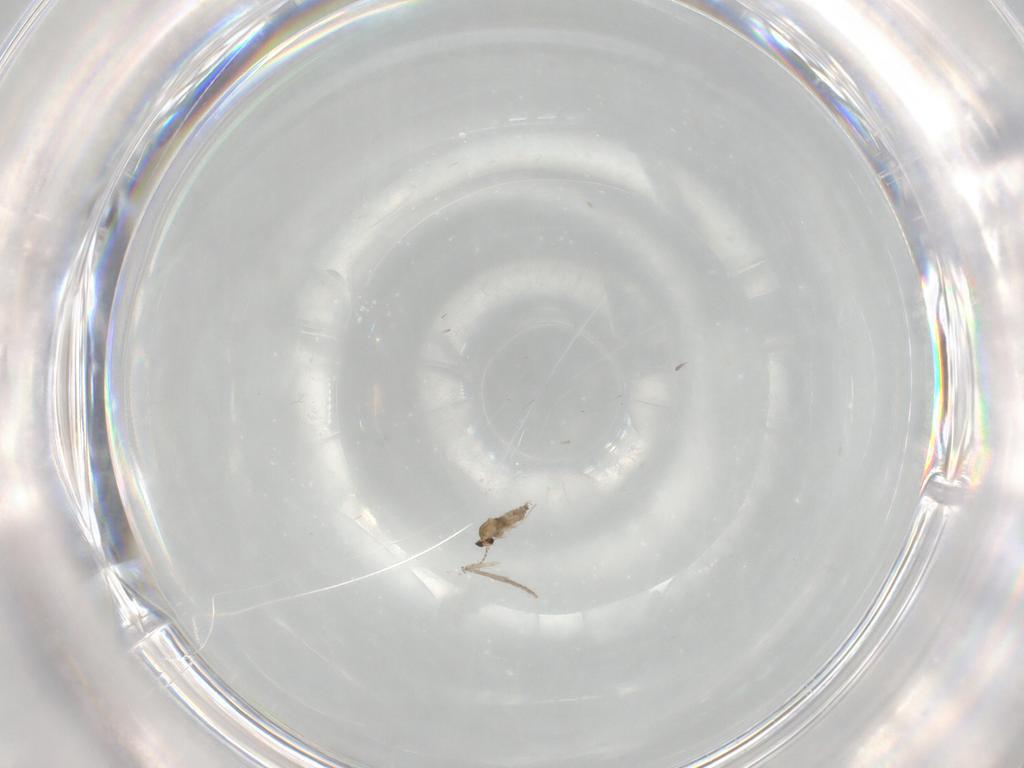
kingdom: Animalia
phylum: Arthropoda
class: Insecta
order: Diptera
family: Cecidomyiidae
